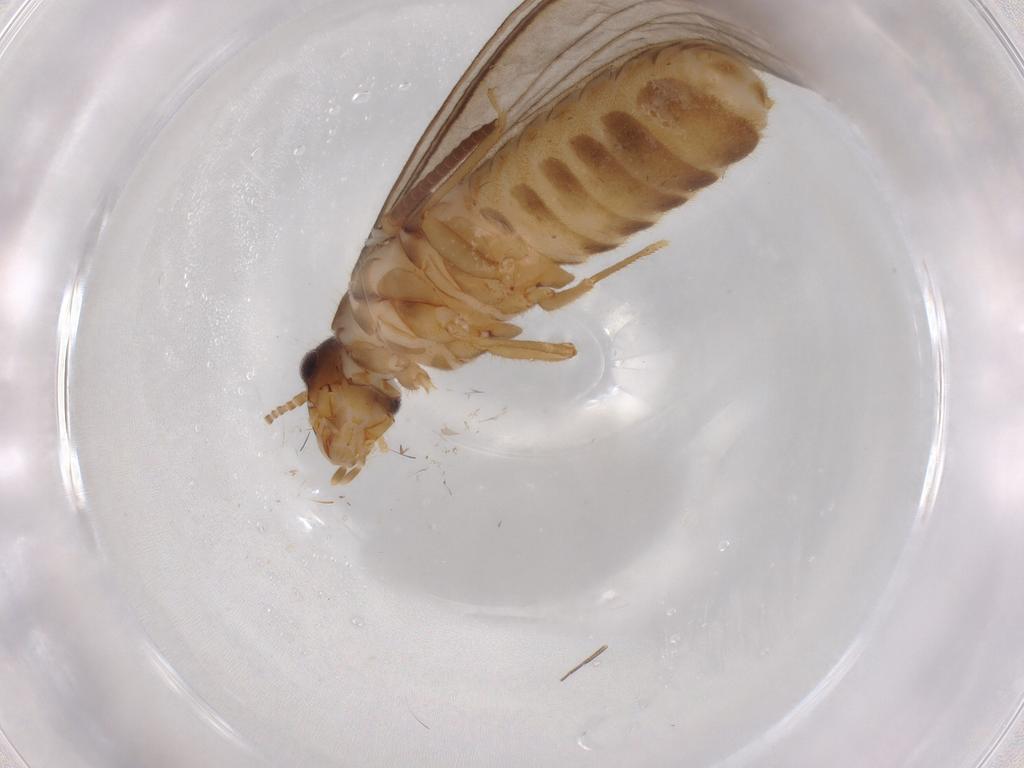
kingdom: Animalia
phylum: Arthropoda
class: Insecta
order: Blattodea
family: Termitidae
